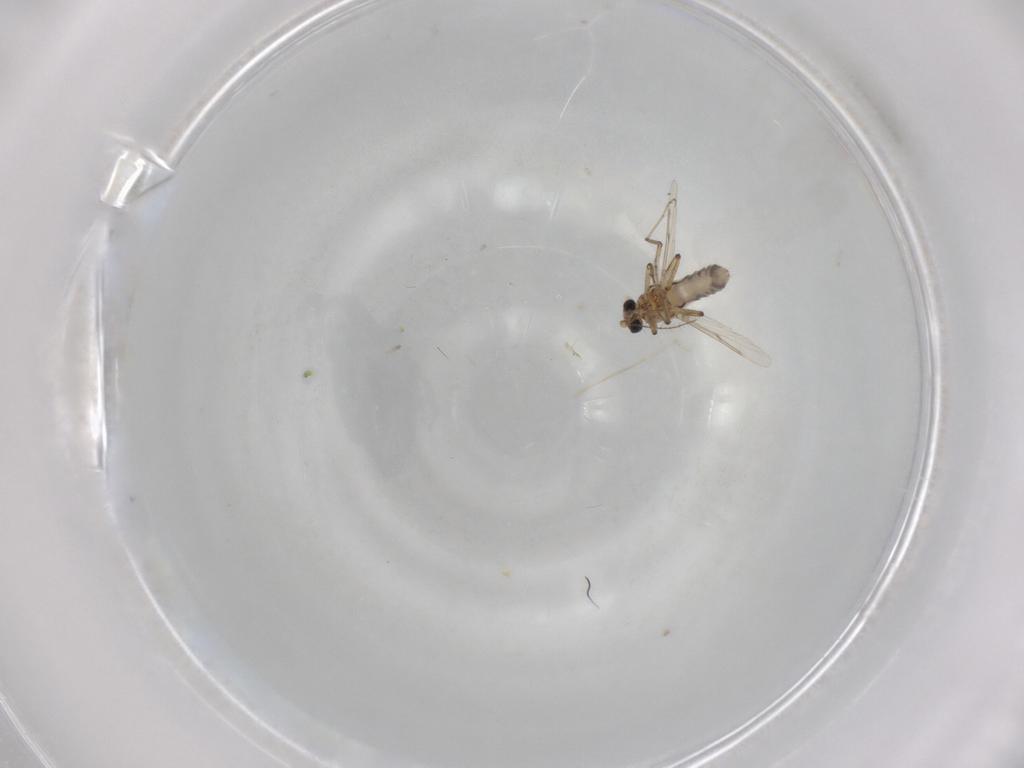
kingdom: Animalia
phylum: Arthropoda
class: Insecta
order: Diptera
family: Ceratopogonidae
